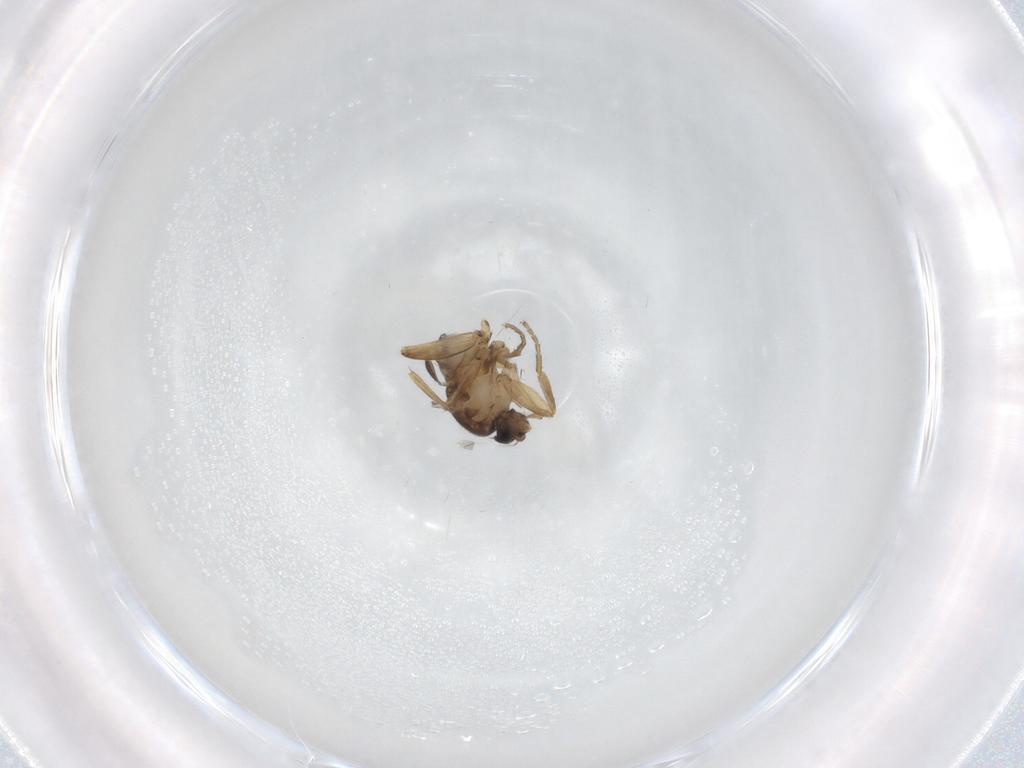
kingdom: Animalia
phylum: Arthropoda
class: Insecta
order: Diptera
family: Phoridae
